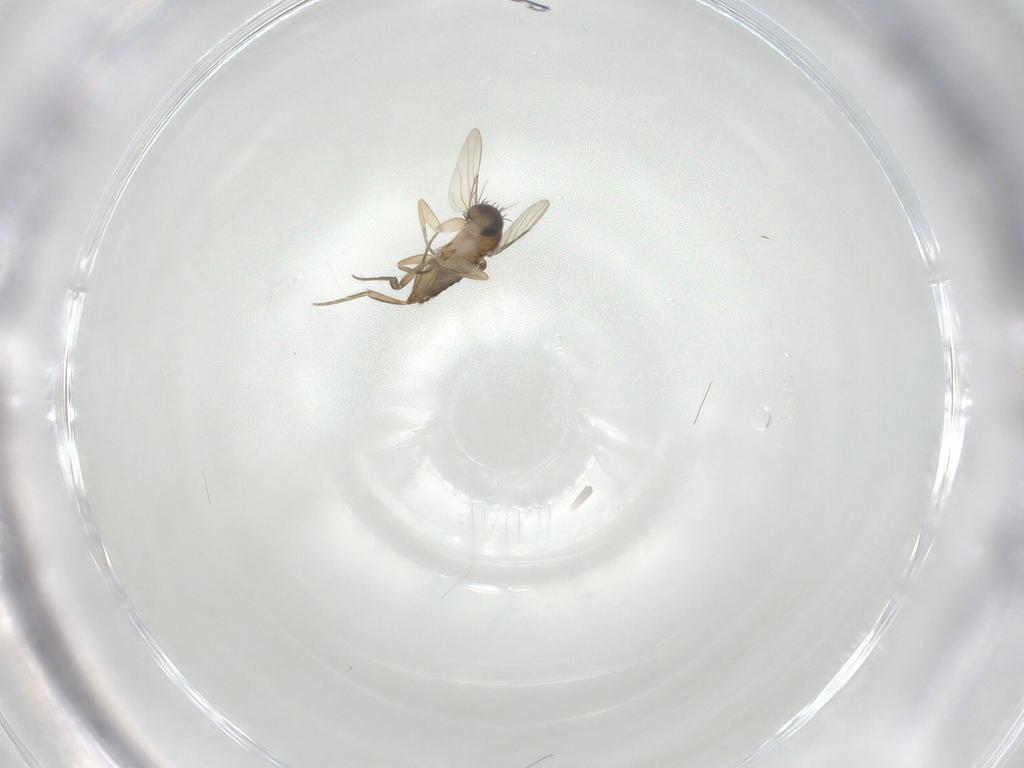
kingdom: Animalia
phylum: Arthropoda
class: Insecta
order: Diptera
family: Phoridae
